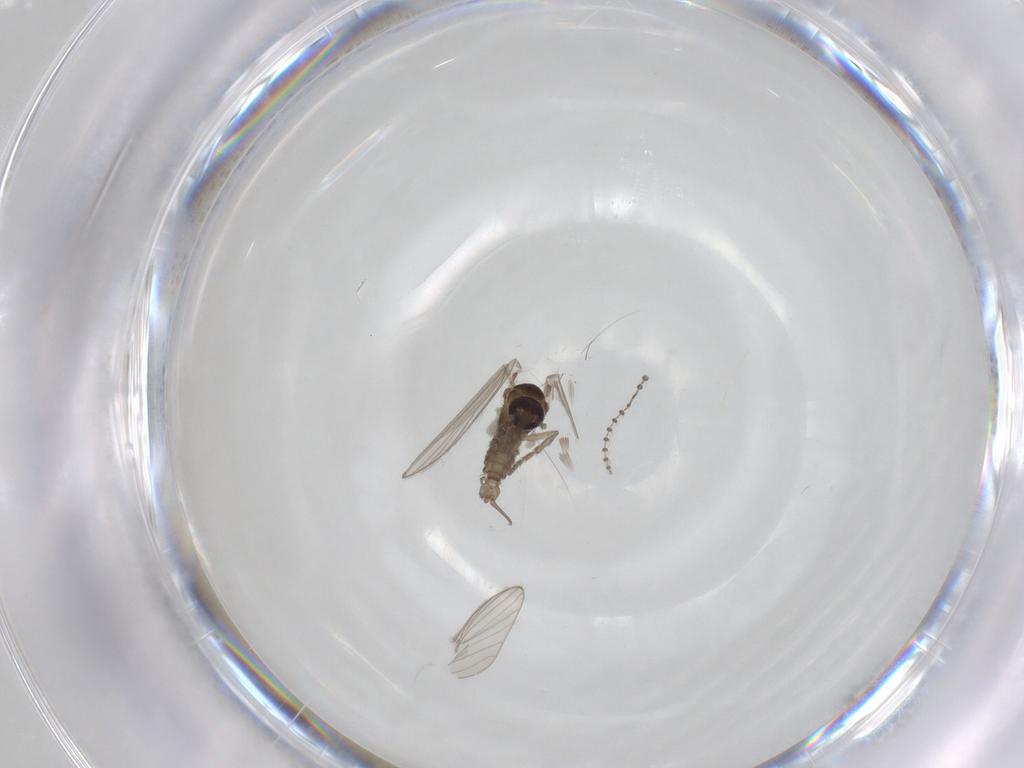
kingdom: Animalia
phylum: Arthropoda
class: Insecta
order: Diptera
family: Psychodidae
